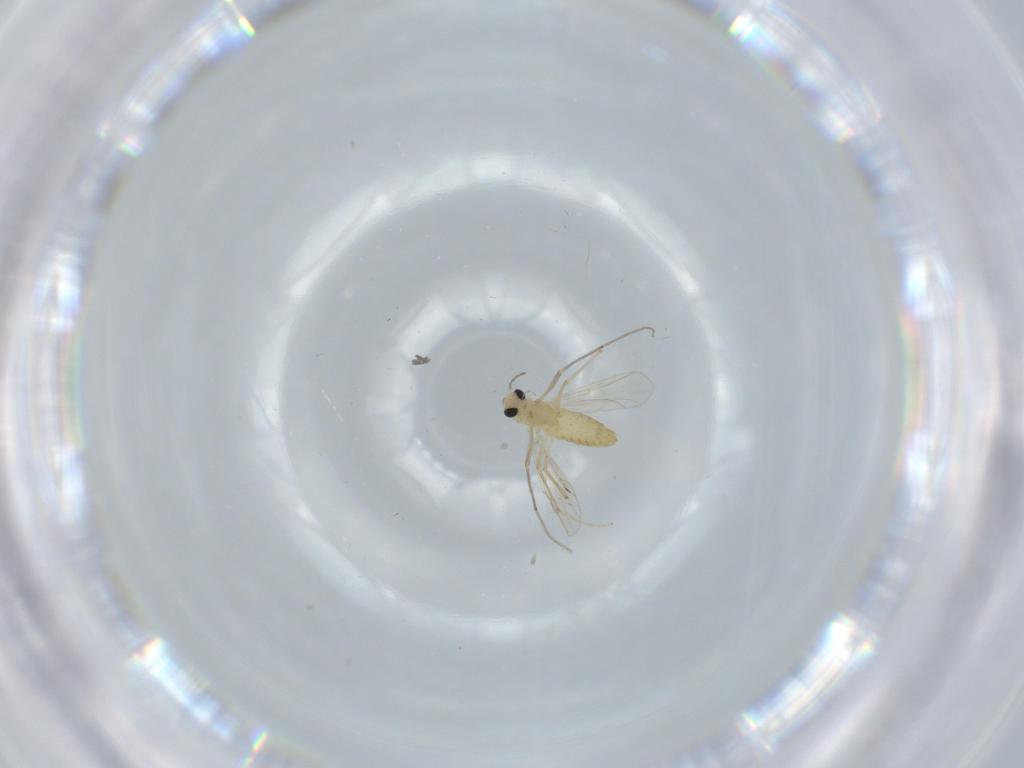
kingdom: Animalia
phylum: Arthropoda
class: Insecta
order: Diptera
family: Chironomidae
